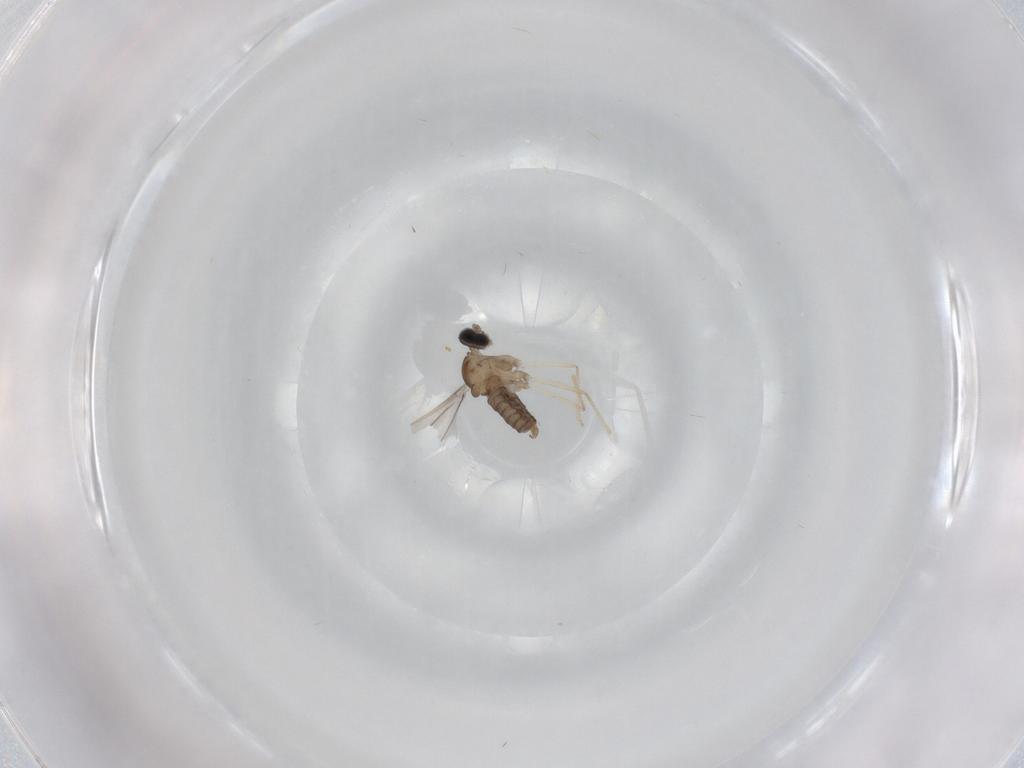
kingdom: Animalia
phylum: Arthropoda
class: Insecta
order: Diptera
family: Cecidomyiidae
